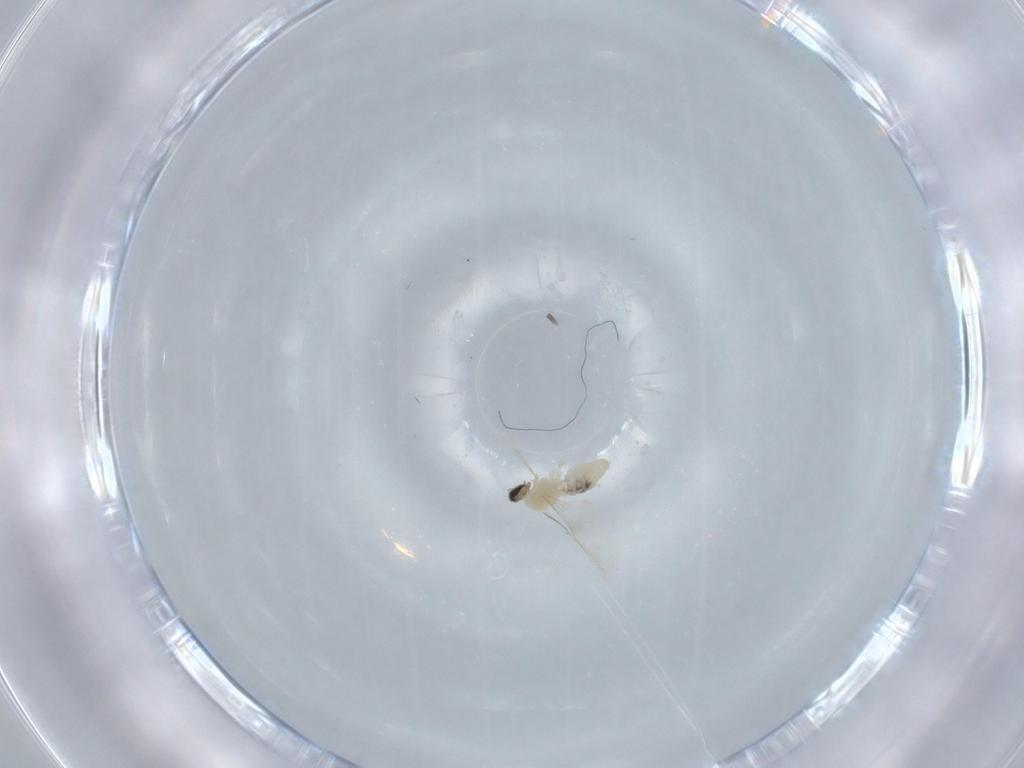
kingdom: Animalia
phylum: Arthropoda
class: Insecta
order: Diptera
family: Cecidomyiidae
